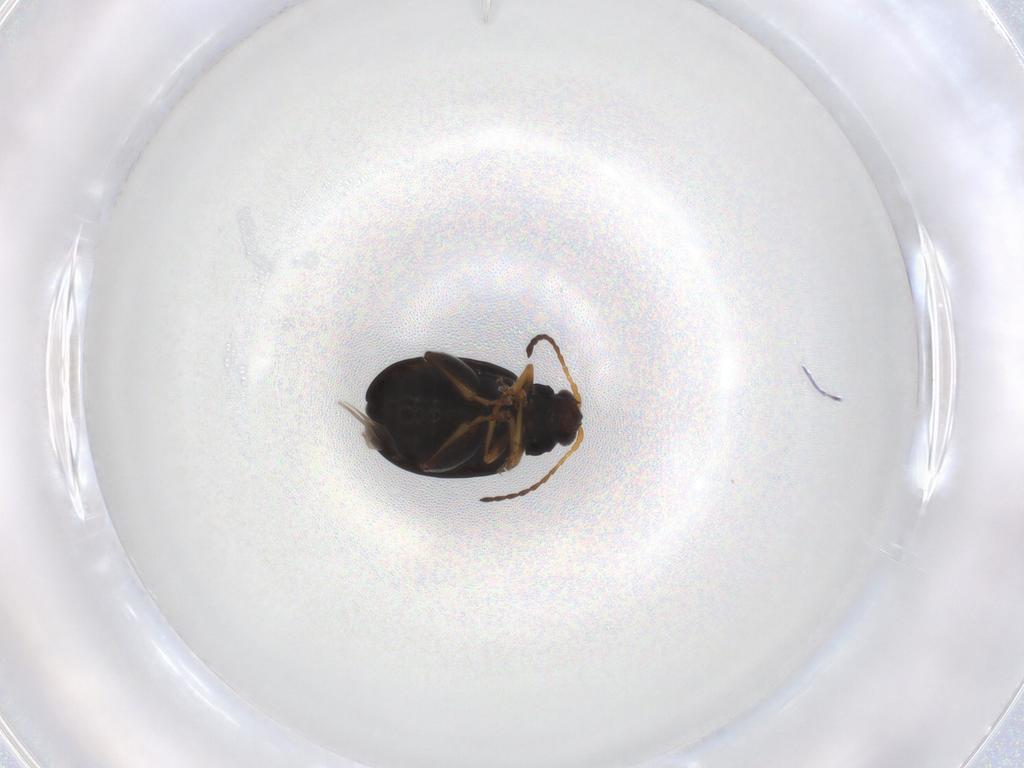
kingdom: Animalia
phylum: Arthropoda
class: Insecta
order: Coleoptera
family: Chrysomelidae
